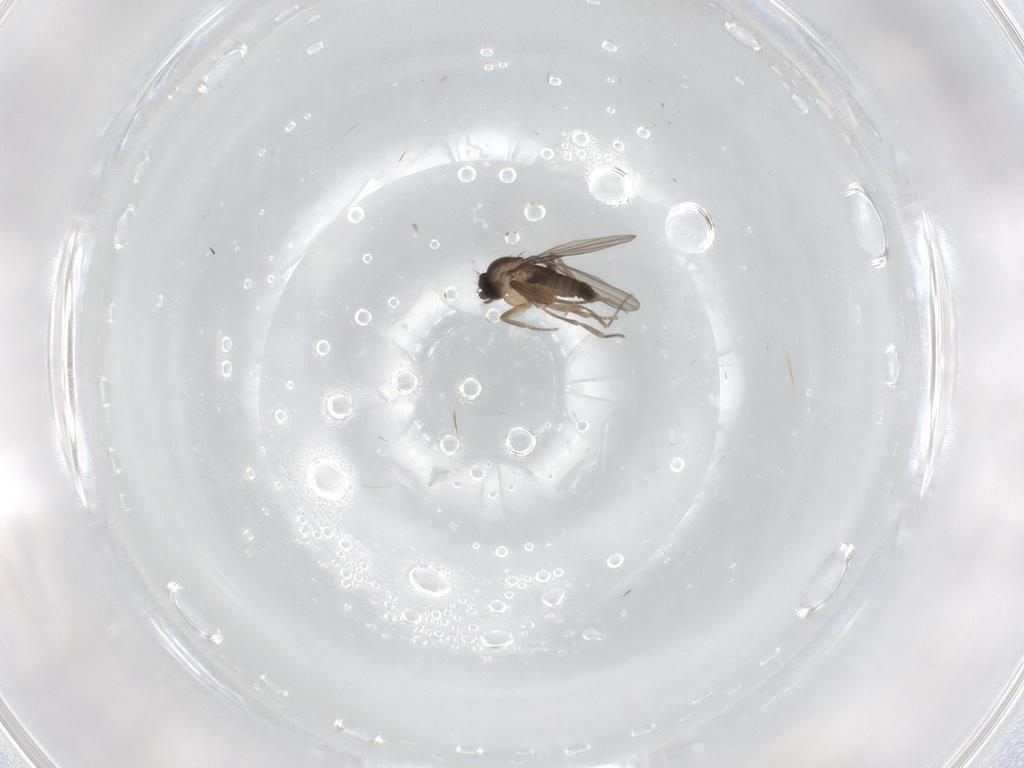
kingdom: Animalia
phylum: Arthropoda
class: Insecta
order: Diptera
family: Phoridae
